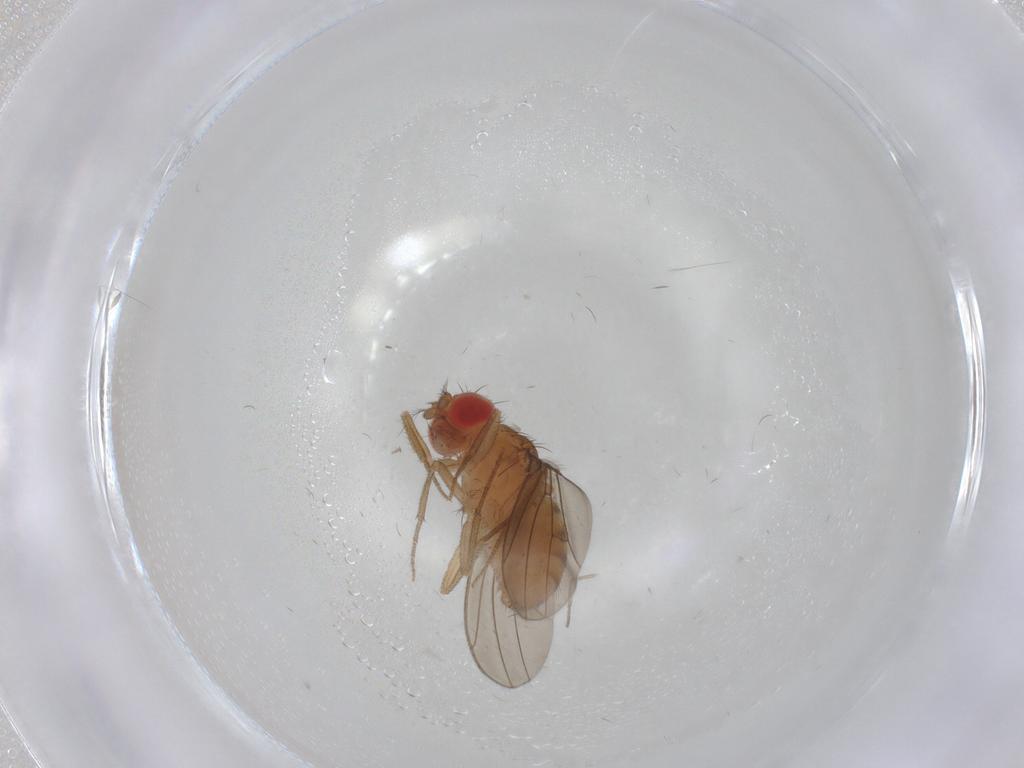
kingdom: Animalia
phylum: Arthropoda
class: Insecta
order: Diptera
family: Drosophilidae
